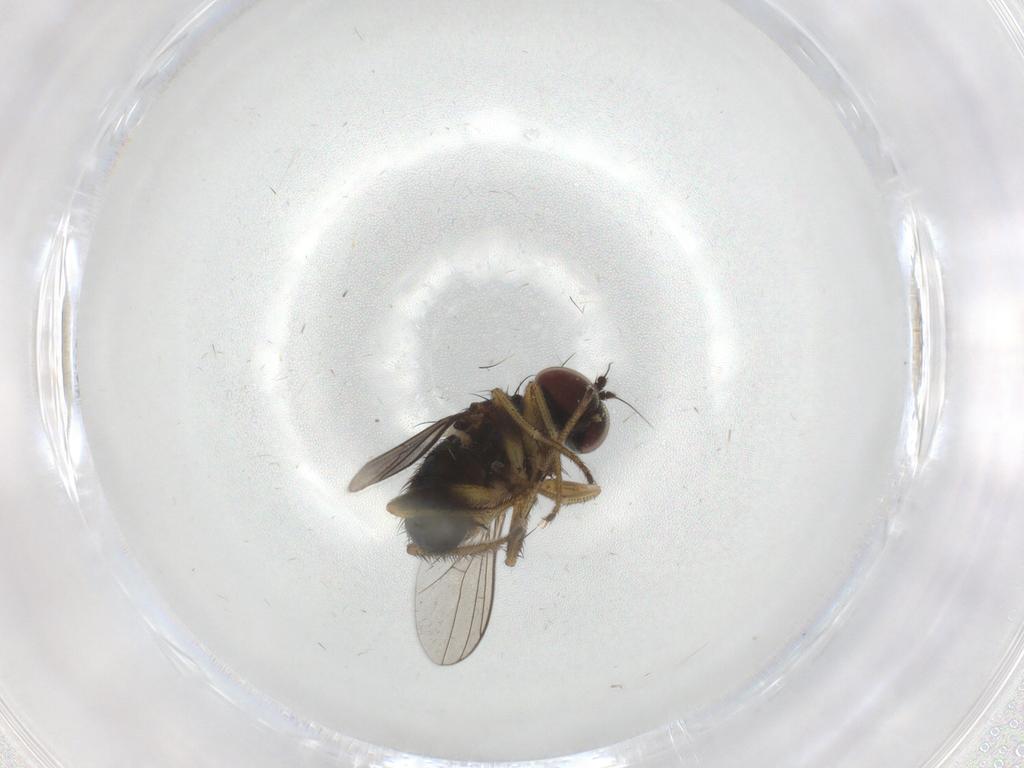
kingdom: Animalia
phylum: Arthropoda
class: Insecta
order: Diptera
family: Dolichopodidae
